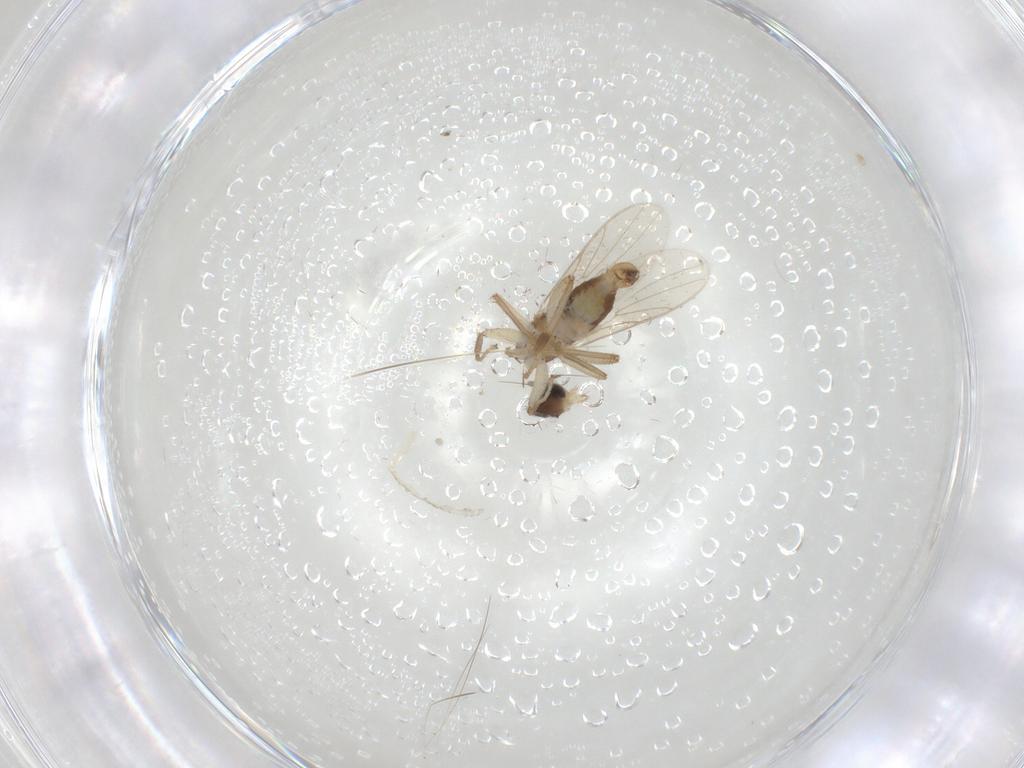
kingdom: Animalia
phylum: Arthropoda
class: Insecta
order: Diptera
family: Hybotidae
